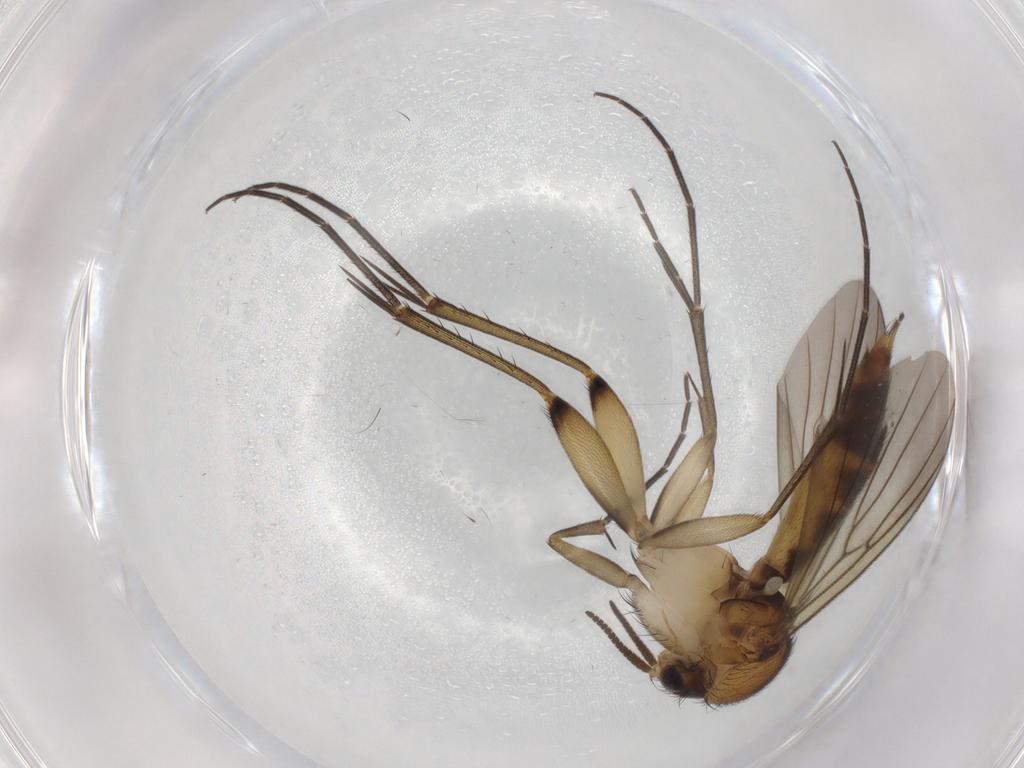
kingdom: Animalia
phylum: Arthropoda
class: Insecta
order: Diptera
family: Mycetophilidae
